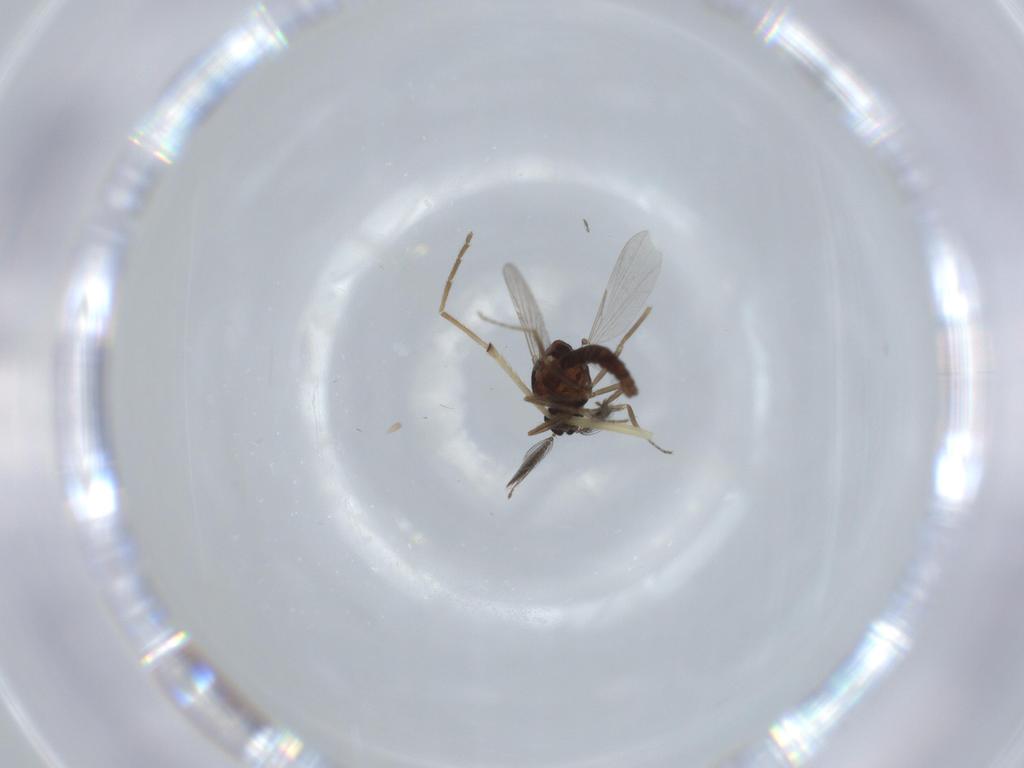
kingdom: Animalia
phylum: Arthropoda
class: Insecta
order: Diptera
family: Chironomidae
